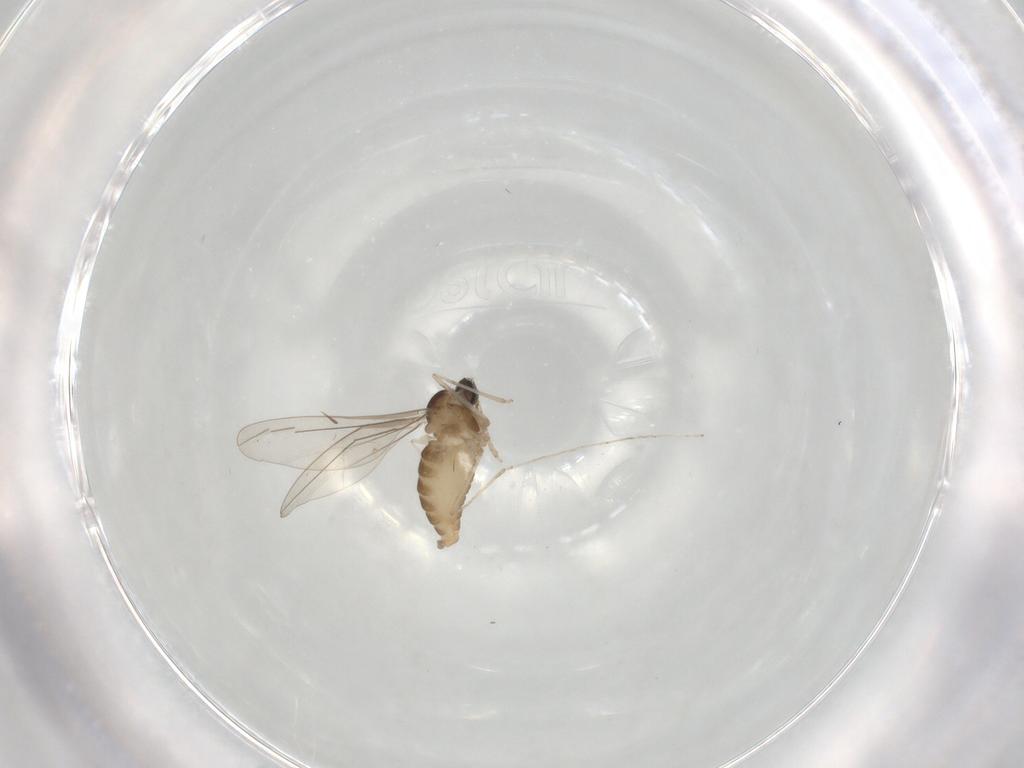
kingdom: Animalia
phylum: Arthropoda
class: Insecta
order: Diptera
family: Cecidomyiidae
